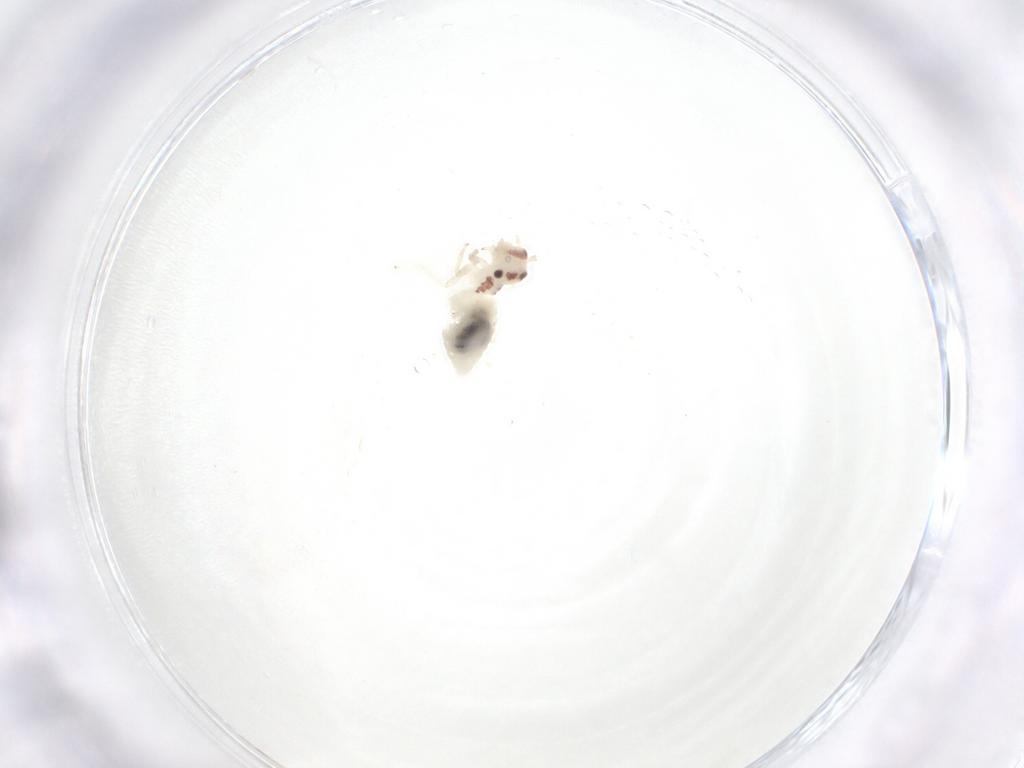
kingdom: Animalia
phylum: Arthropoda
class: Insecta
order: Psocodea
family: Amphipsocidae
